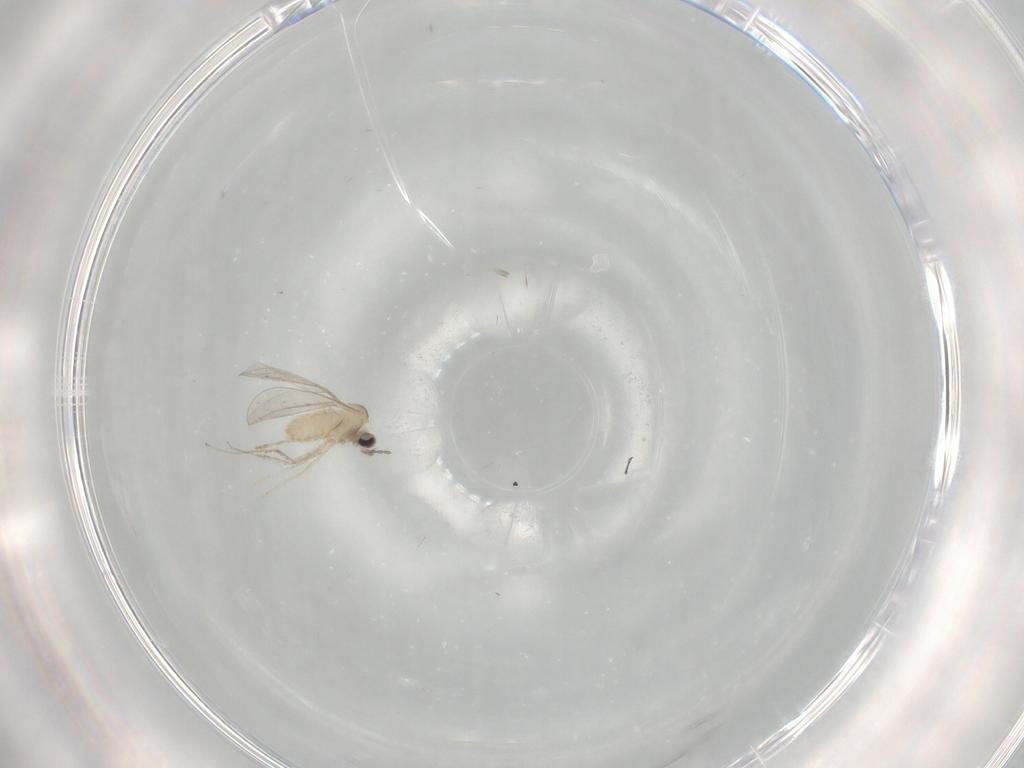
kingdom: Animalia
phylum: Arthropoda
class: Insecta
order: Diptera
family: Cecidomyiidae
